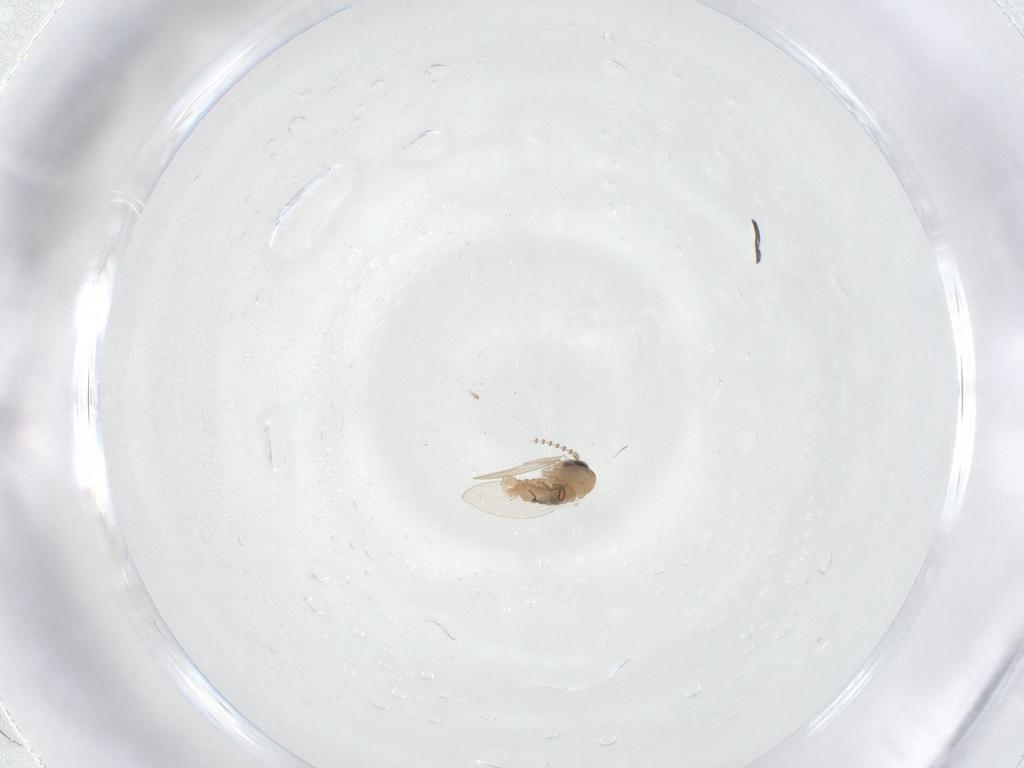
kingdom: Animalia
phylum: Arthropoda
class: Insecta
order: Diptera
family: Psychodidae
